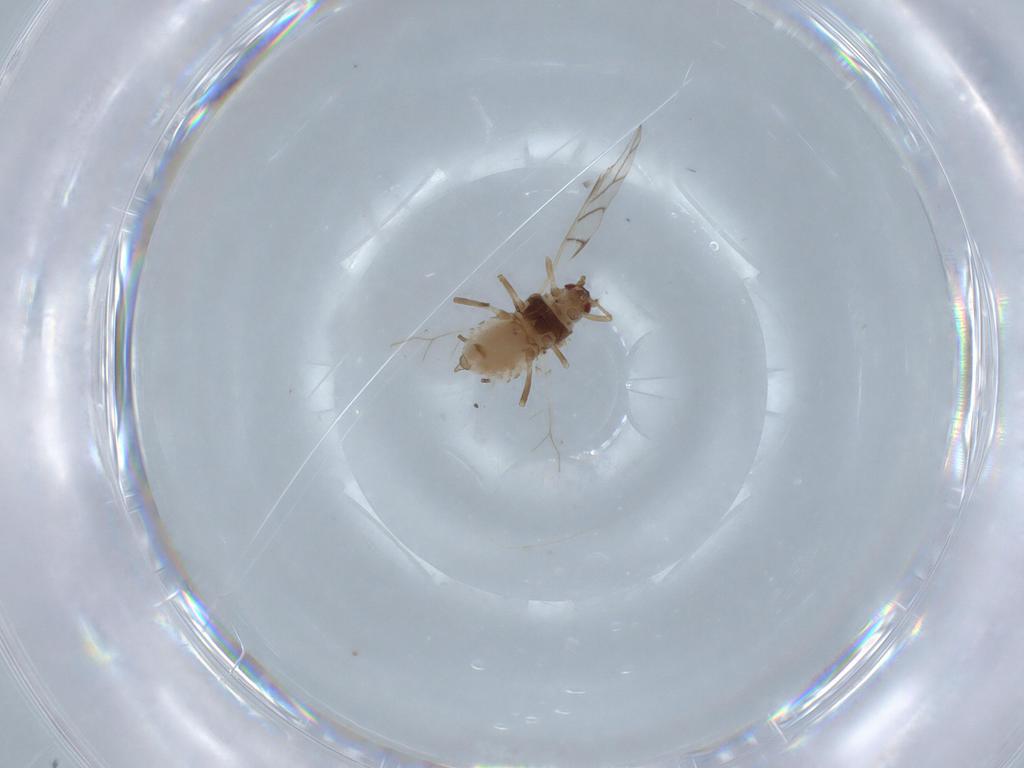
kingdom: Animalia
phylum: Arthropoda
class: Insecta
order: Hemiptera
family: Aphididae
